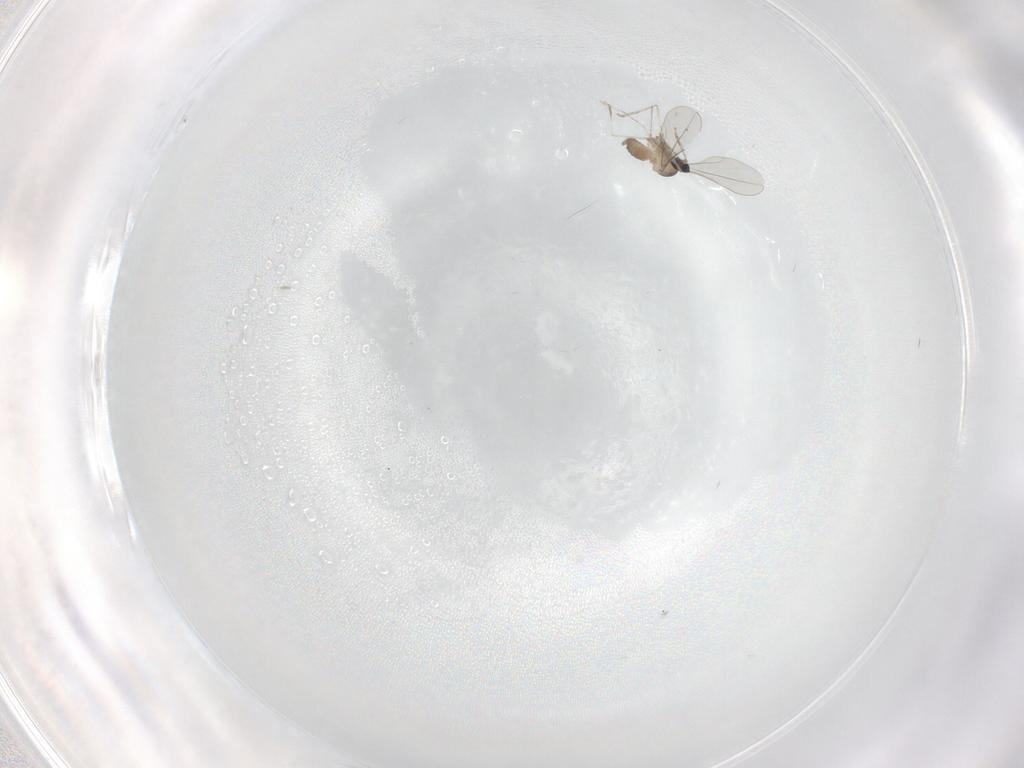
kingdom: Animalia
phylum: Arthropoda
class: Insecta
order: Diptera
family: Cecidomyiidae
